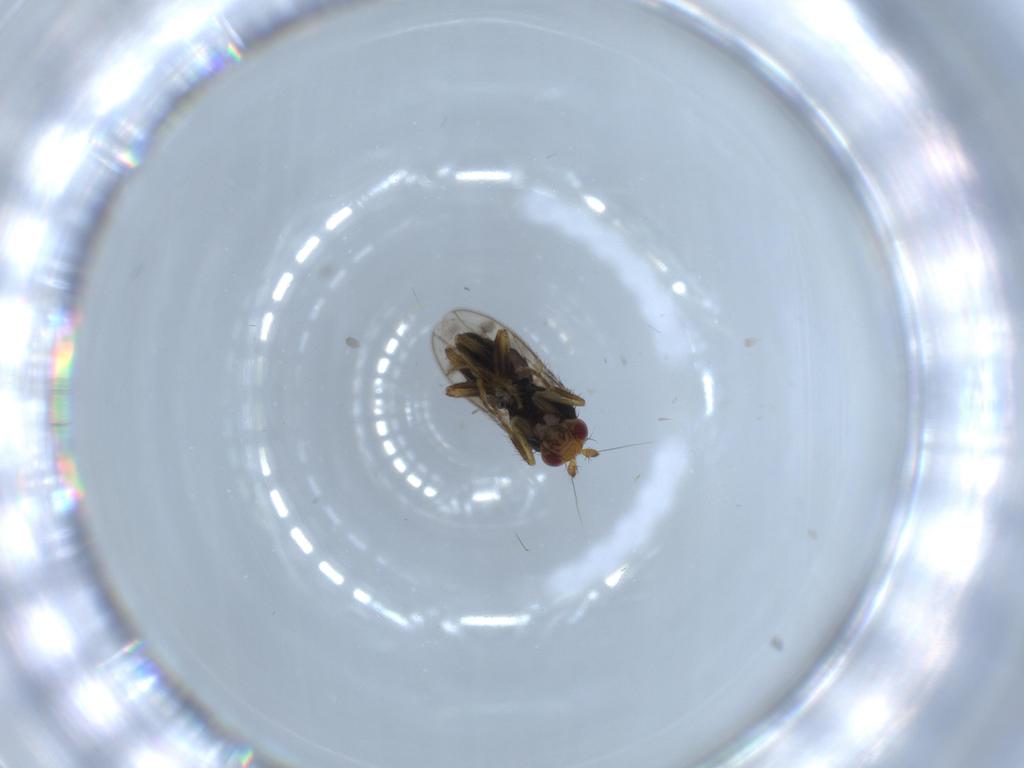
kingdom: Animalia
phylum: Arthropoda
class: Insecta
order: Diptera
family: Sphaeroceridae
